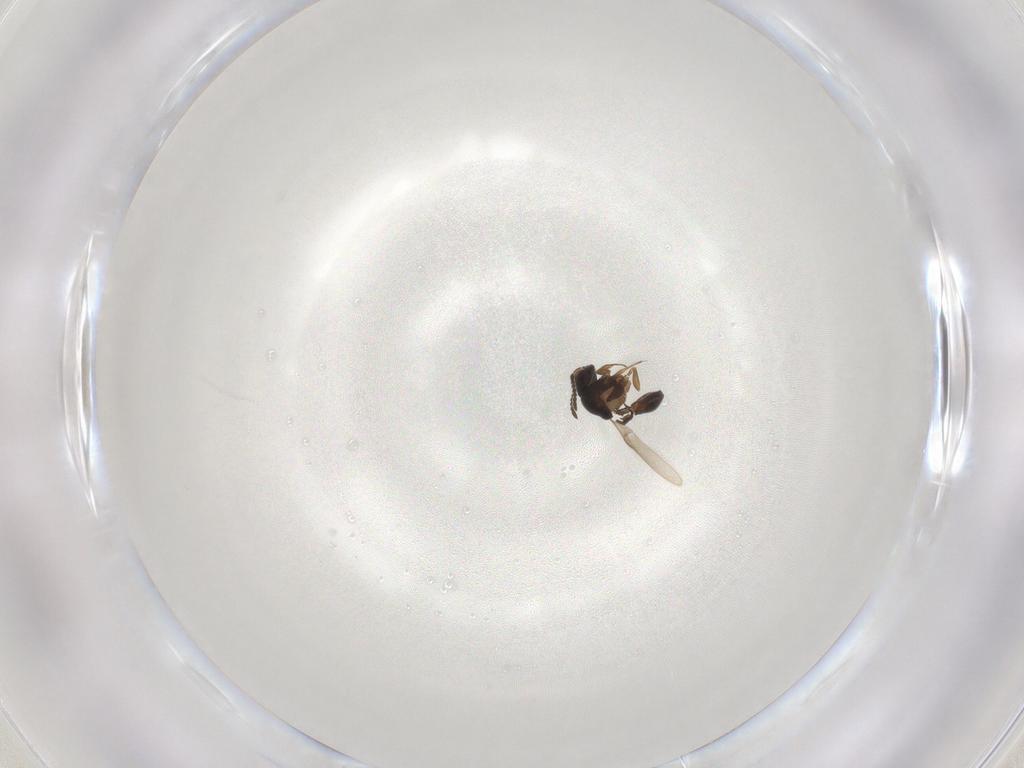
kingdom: Animalia
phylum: Arthropoda
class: Insecta
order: Hymenoptera
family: Scelionidae
